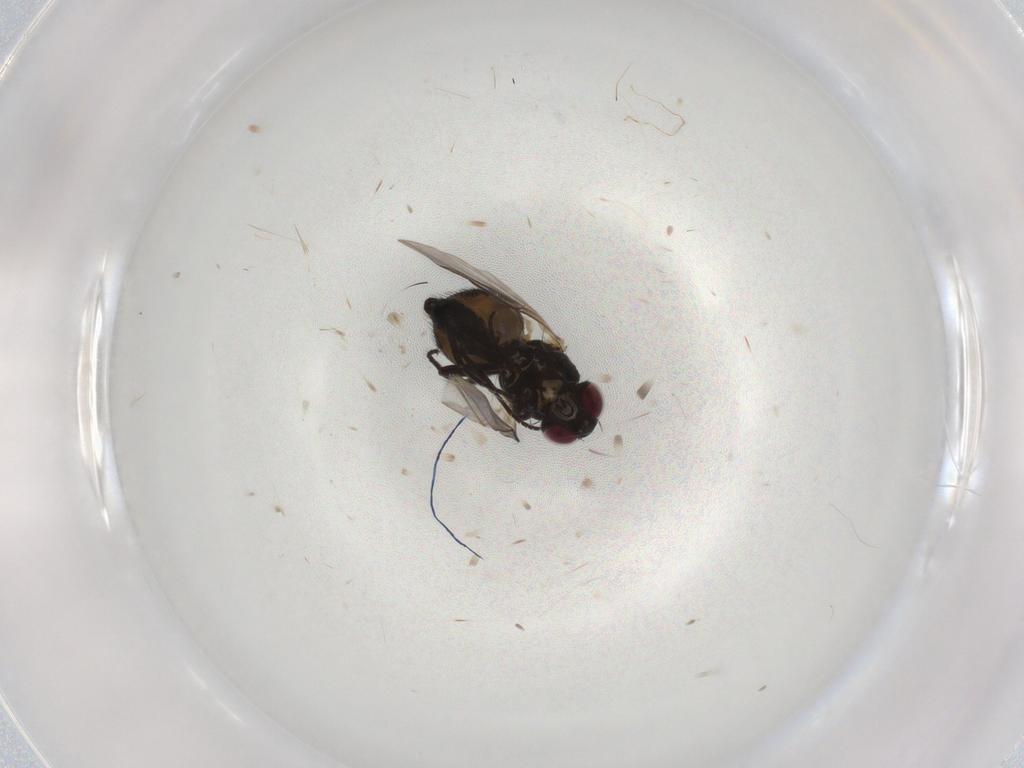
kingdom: Animalia
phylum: Arthropoda
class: Insecta
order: Diptera
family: Agromyzidae
